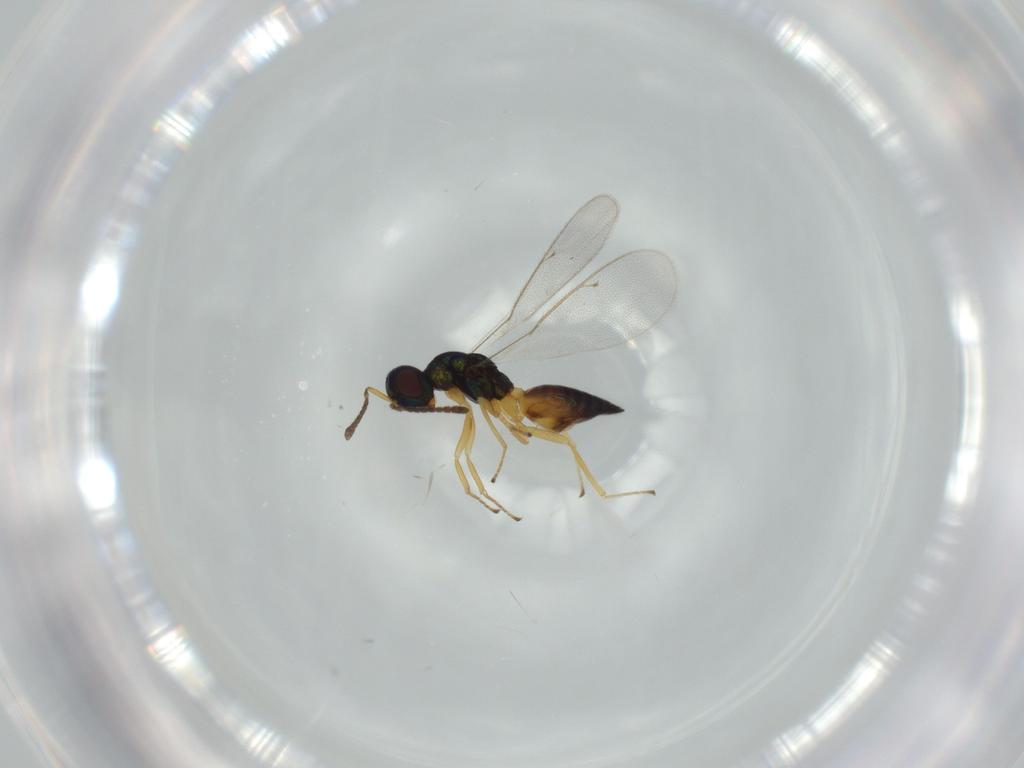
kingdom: Animalia
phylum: Arthropoda
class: Insecta
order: Hymenoptera
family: Pteromalidae
